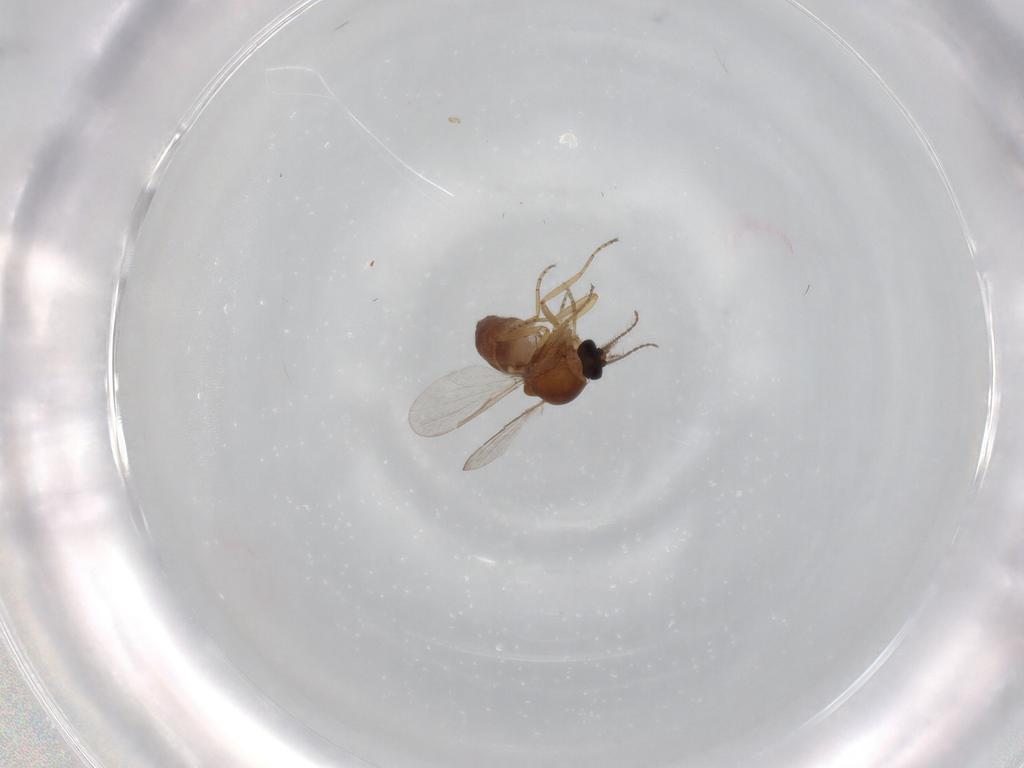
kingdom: Animalia
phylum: Arthropoda
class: Insecta
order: Diptera
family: Ceratopogonidae
